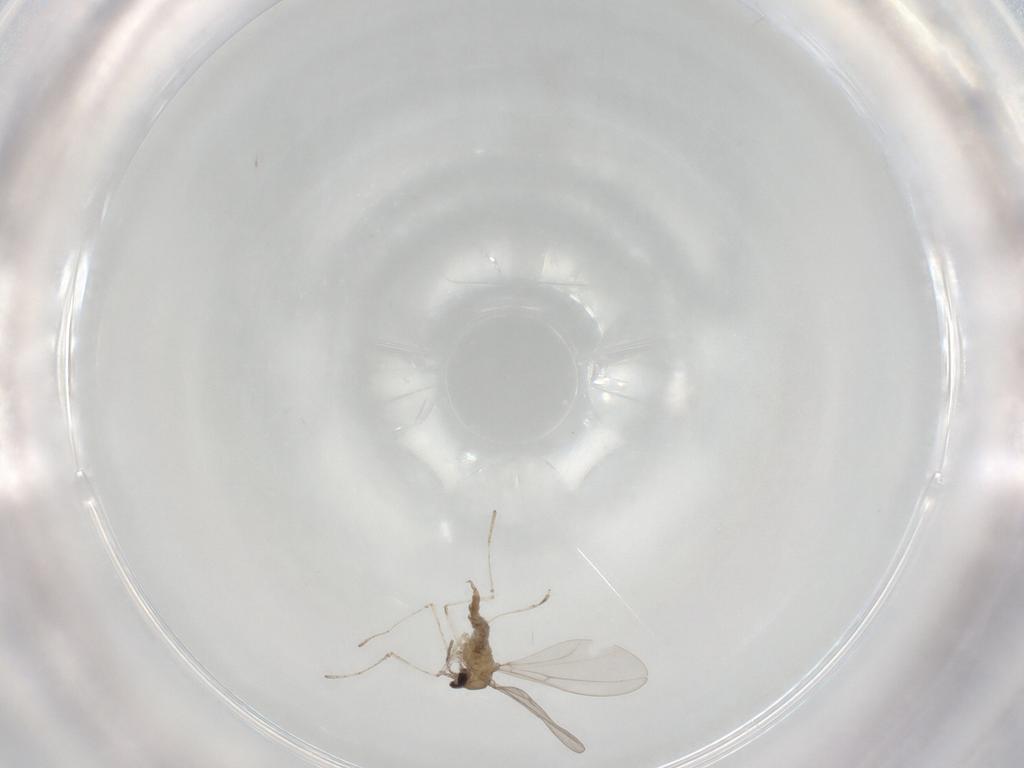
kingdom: Animalia
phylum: Arthropoda
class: Insecta
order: Diptera
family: Cecidomyiidae
